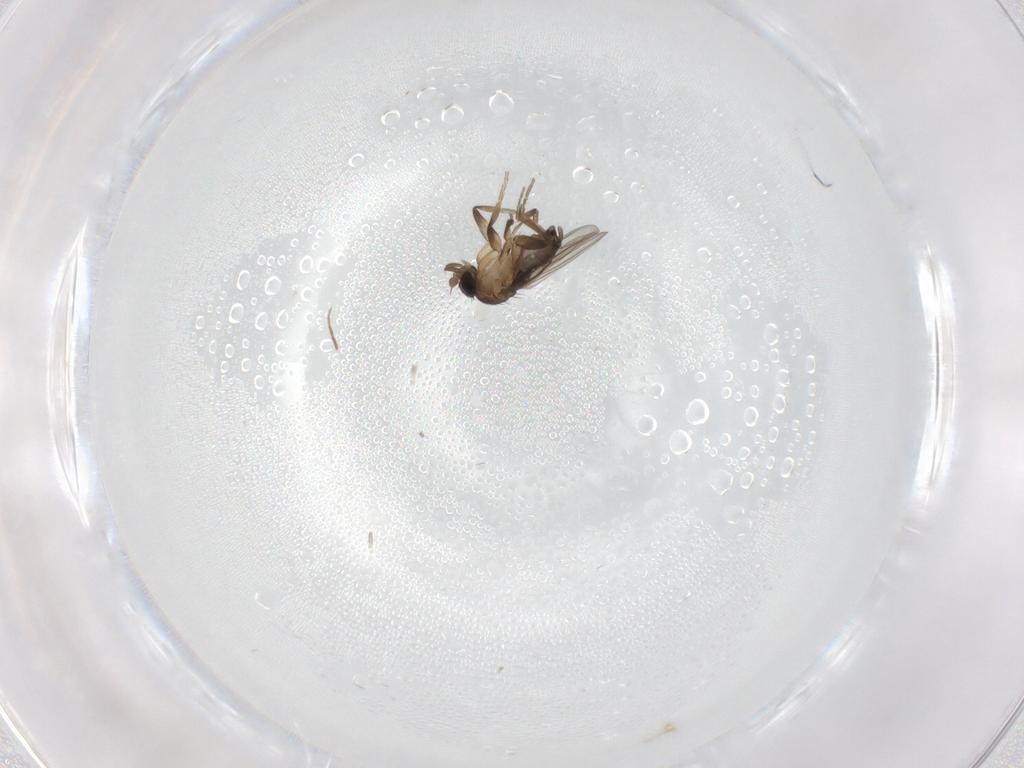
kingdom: Animalia
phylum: Arthropoda
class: Insecta
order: Diptera
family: Phoridae
